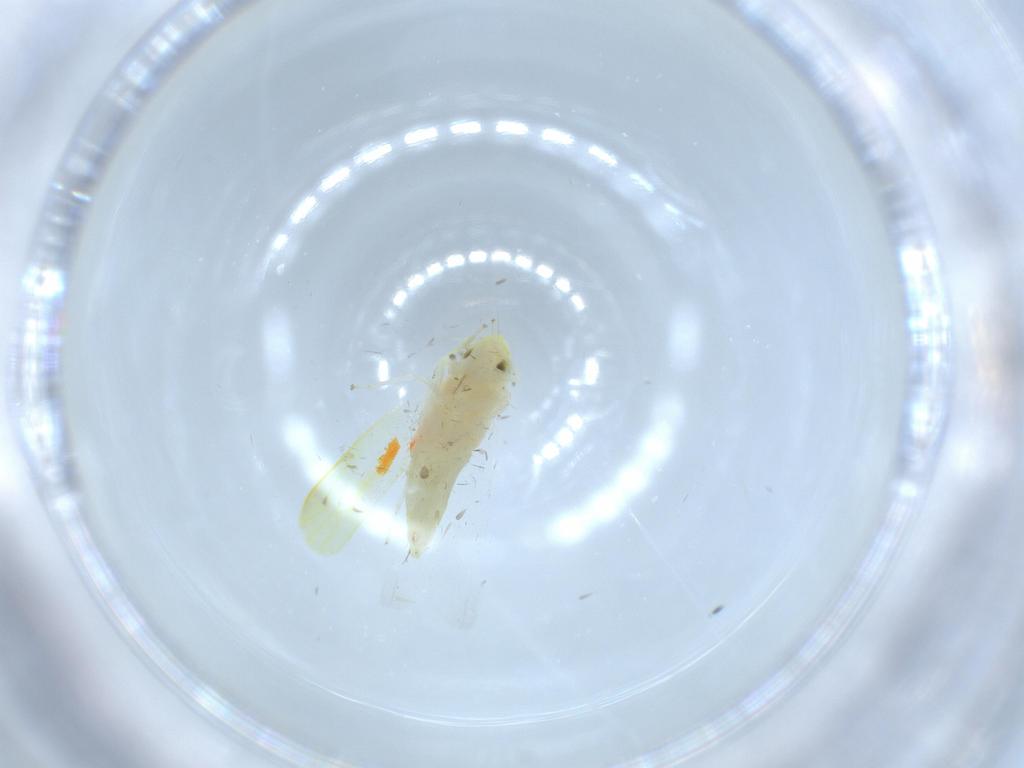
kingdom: Animalia
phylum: Arthropoda
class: Insecta
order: Hemiptera
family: Cicadellidae
